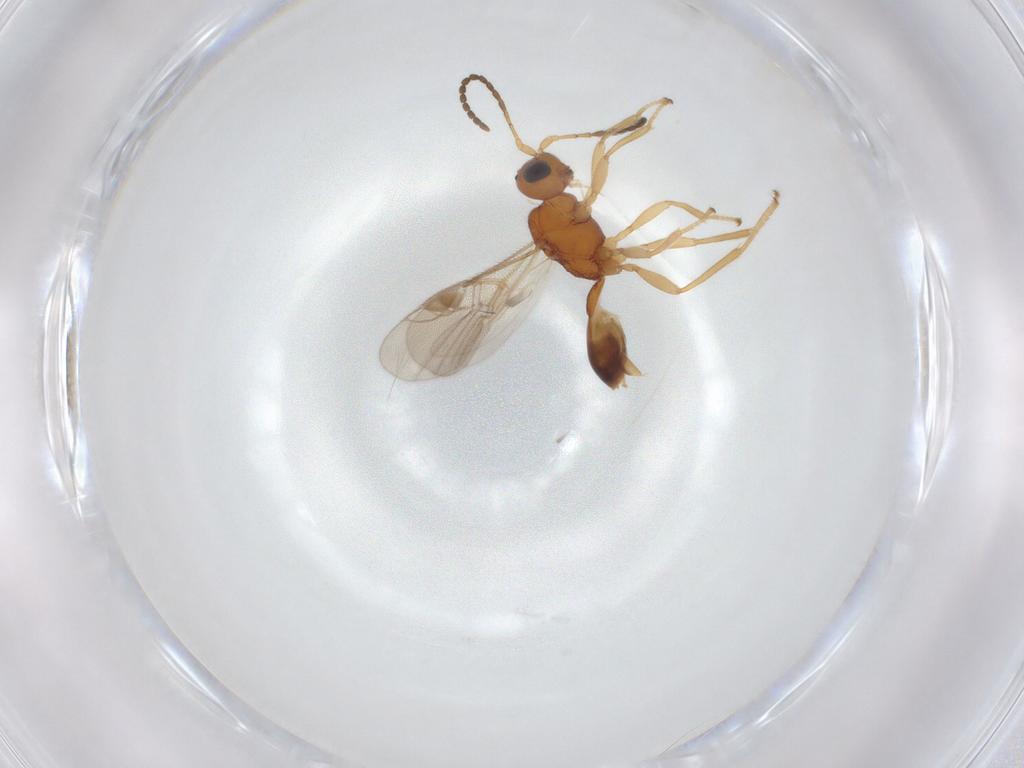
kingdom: Animalia
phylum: Arthropoda
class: Insecta
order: Hymenoptera
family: Braconidae
